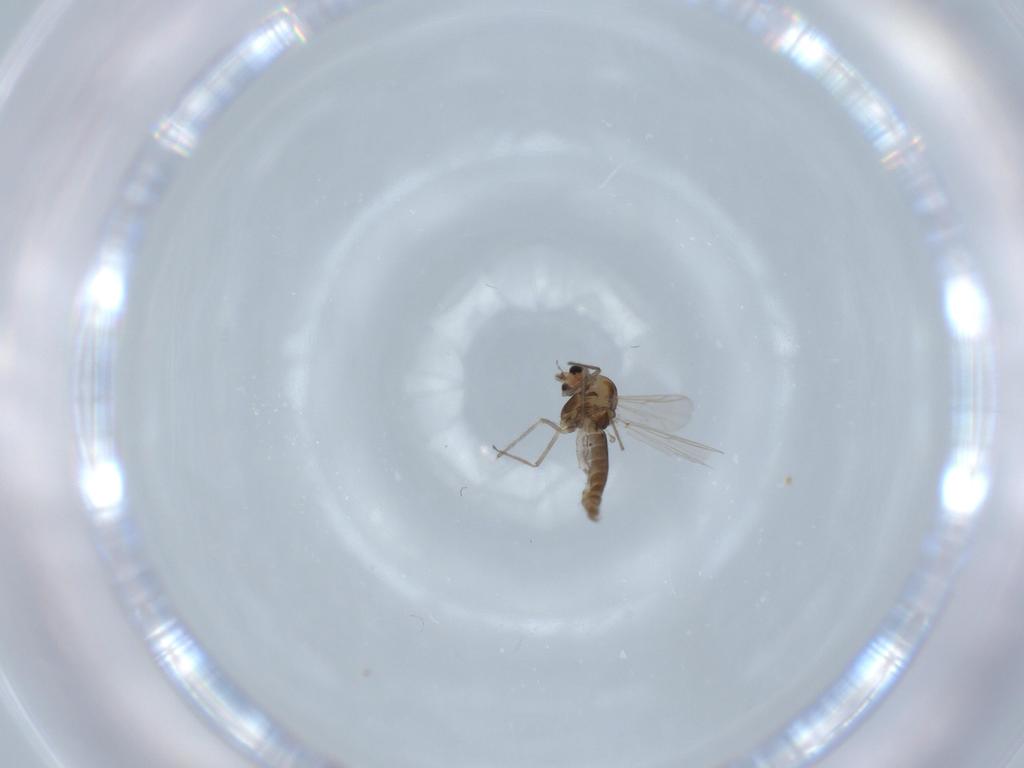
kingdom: Animalia
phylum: Arthropoda
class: Insecta
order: Diptera
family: Chironomidae
